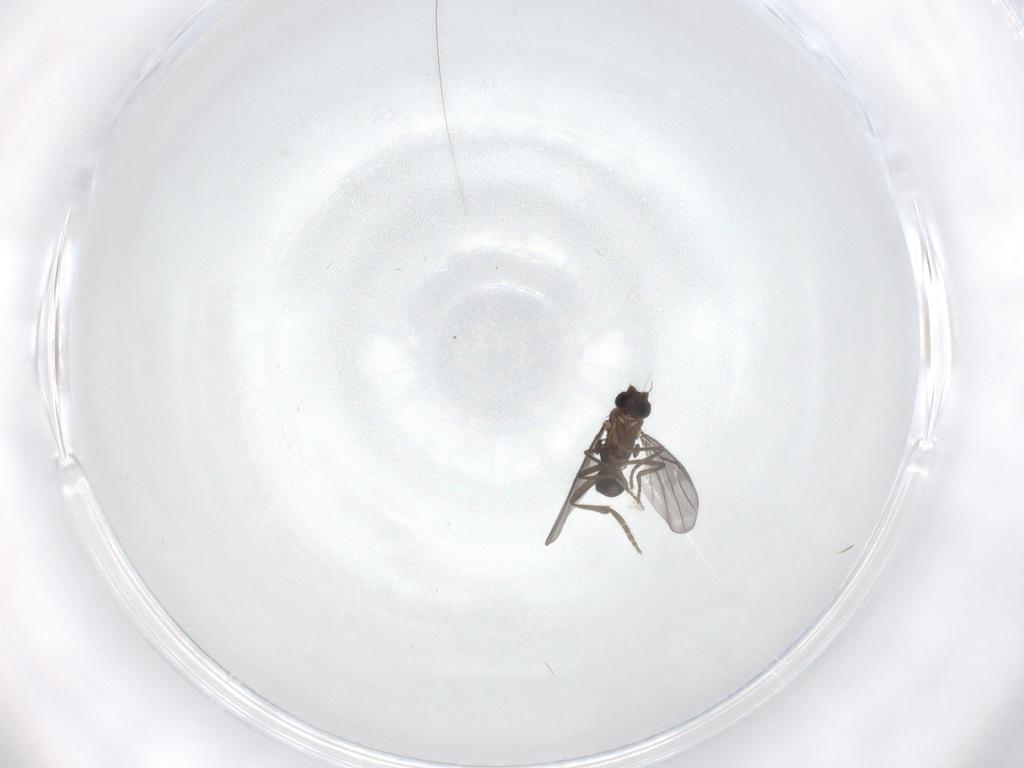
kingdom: Animalia
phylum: Arthropoda
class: Insecta
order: Diptera
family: Phoridae
